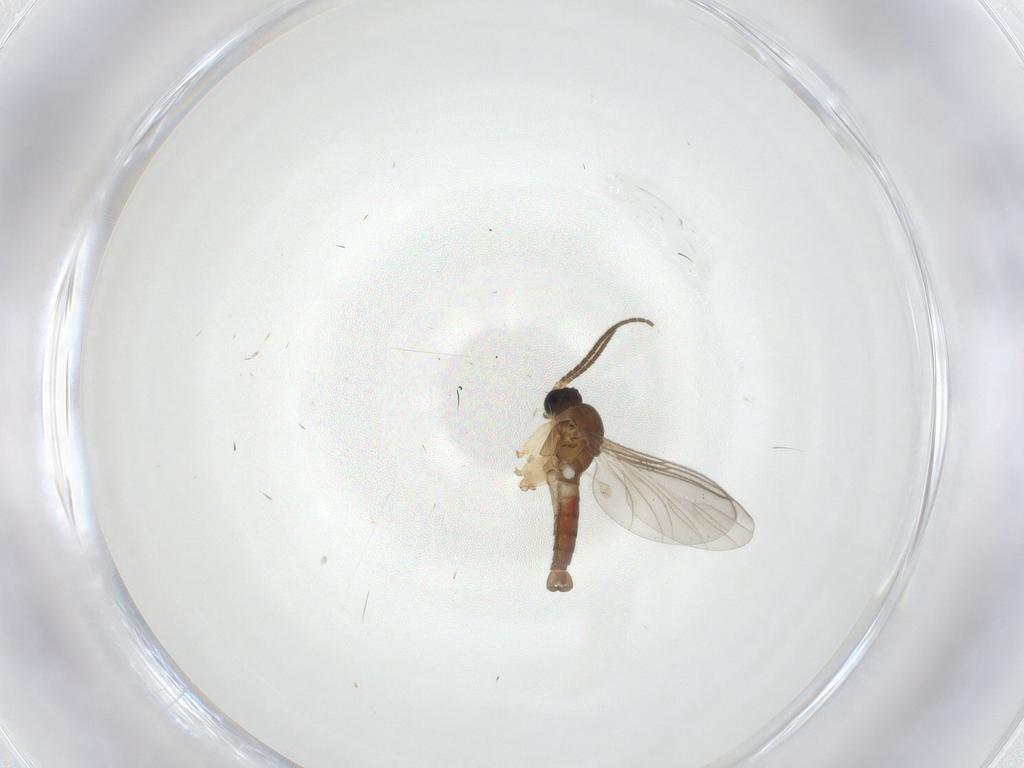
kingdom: Animalia
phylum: Arthropoda
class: Insecta
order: Diptera
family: Sciaridae
